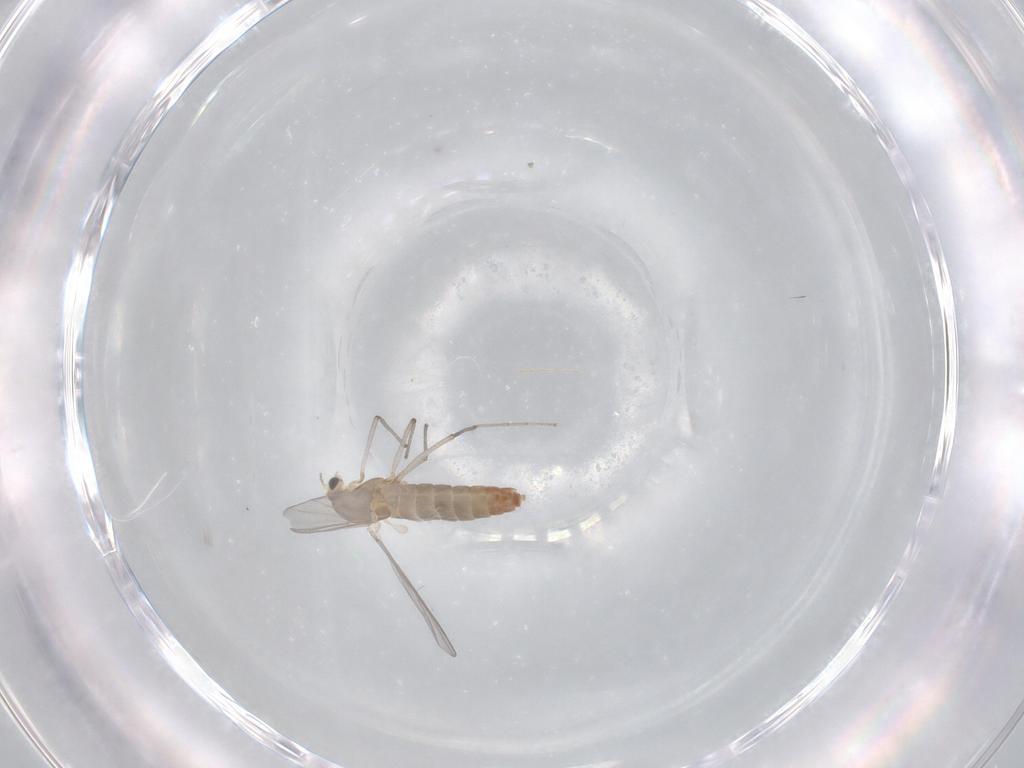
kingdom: Animalia
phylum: Arthropoda
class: Insecta
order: Diptera
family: Chironomidae
